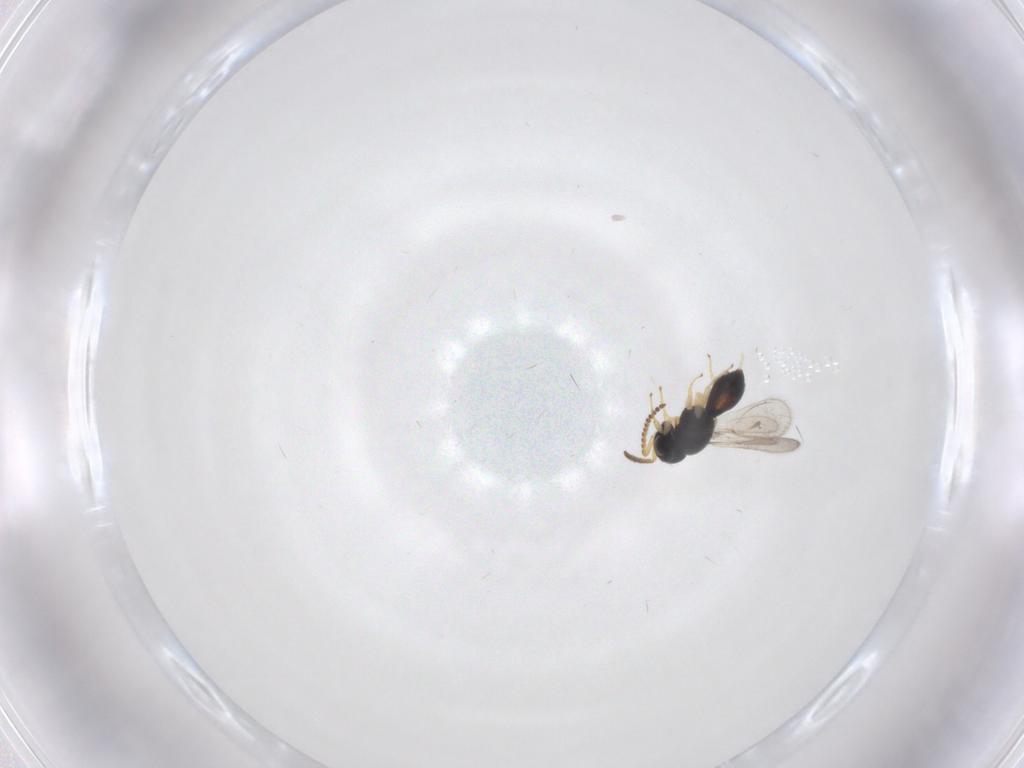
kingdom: Animalia
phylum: Arthropoda
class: Insecta
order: Hymenoptera
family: Scelionidae
